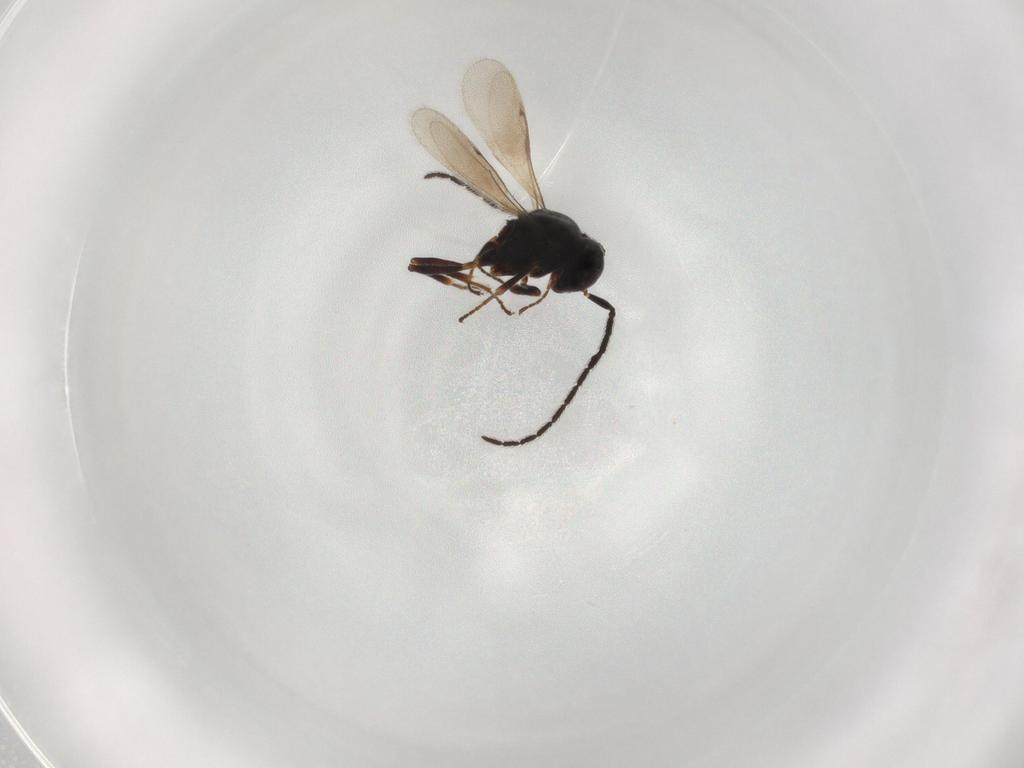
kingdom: Animalia
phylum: Arthropoda
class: Insecta
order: Hymenoptera
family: Scelionidae
